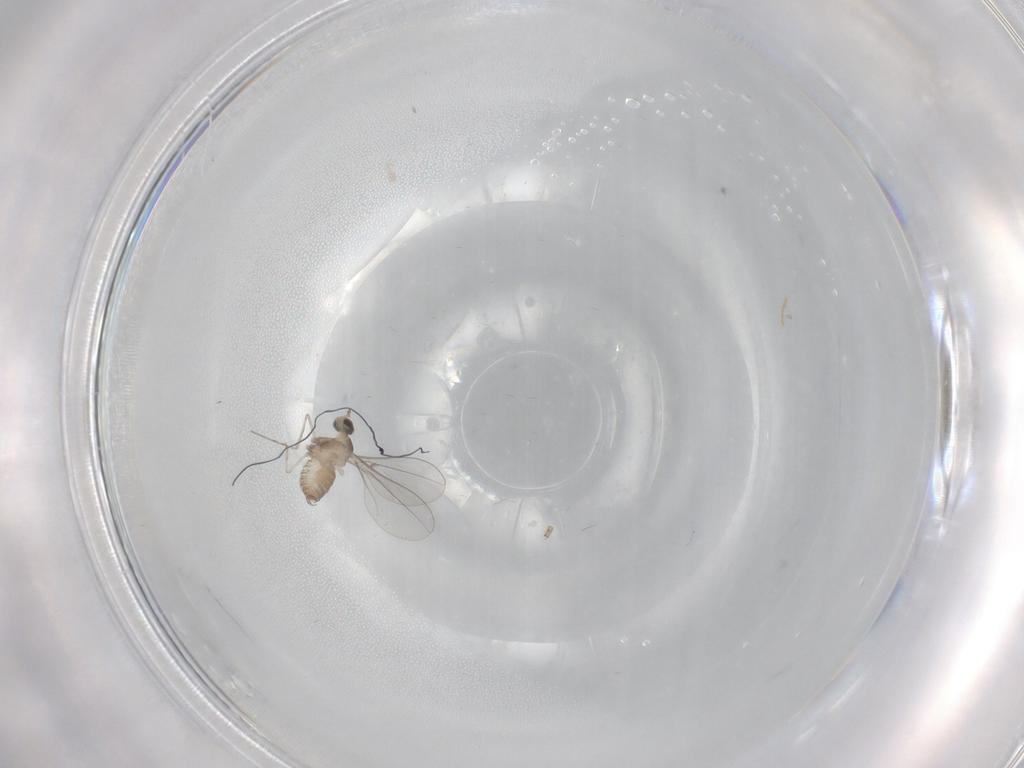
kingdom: Animalia
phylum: Arthropoda
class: Insecta
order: Diptera
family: Cecidomyiidae
